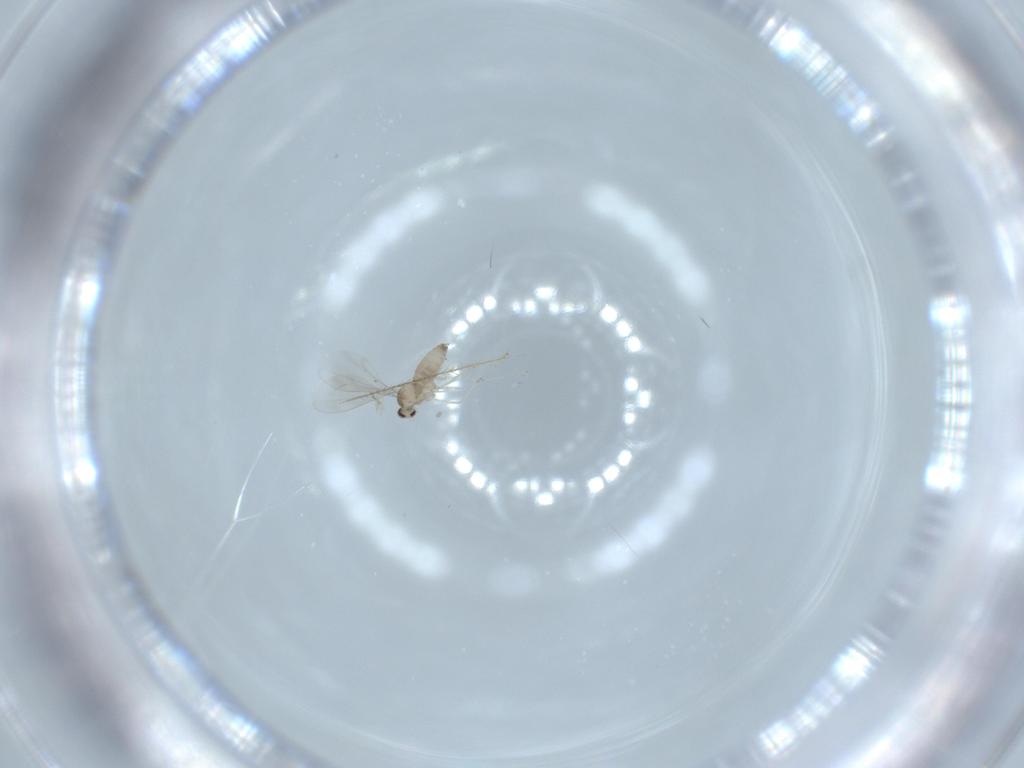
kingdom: Animalia
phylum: Arthropoda
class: Insecta
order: Diptera
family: Cecidomyiidae
